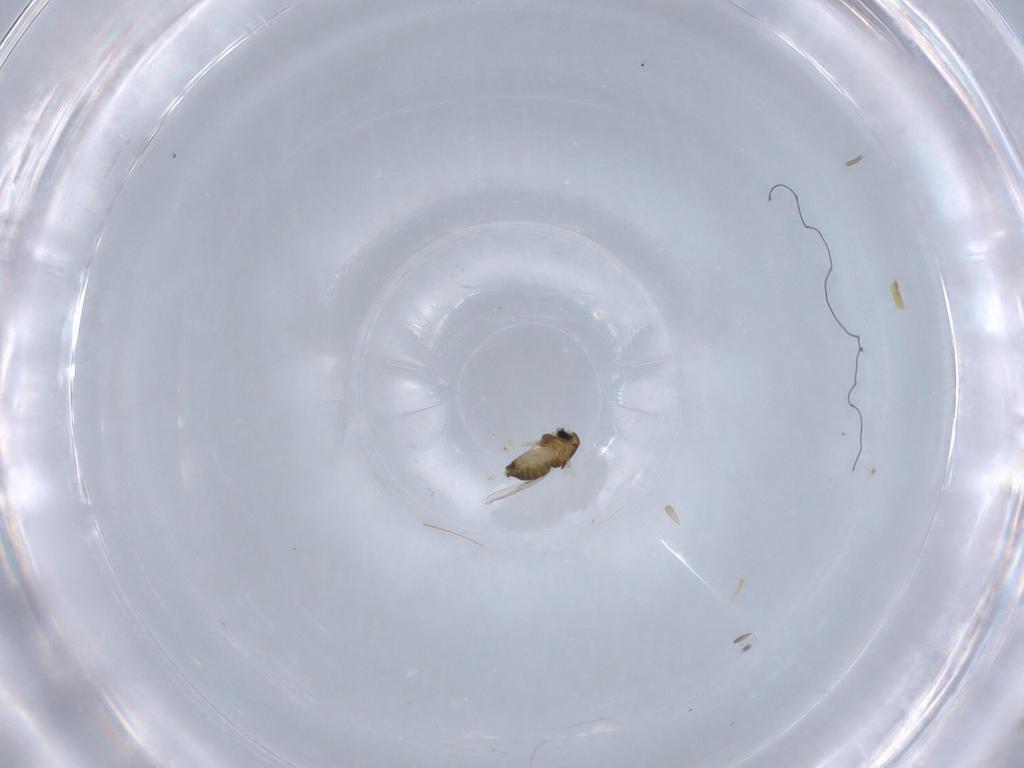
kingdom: Animalia
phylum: Arthropoda
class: Insecta
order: Diptera
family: Chironomidae
